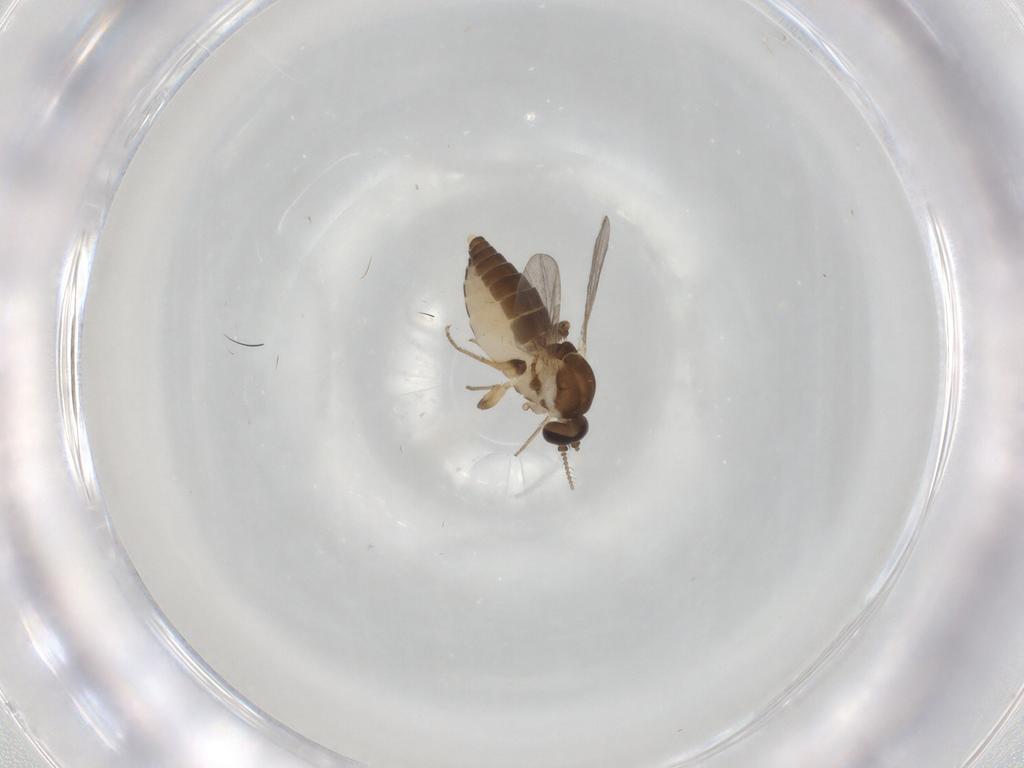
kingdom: Animalia
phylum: Arthropoda
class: Insecta
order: Diptera
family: Ceratopogonidae
